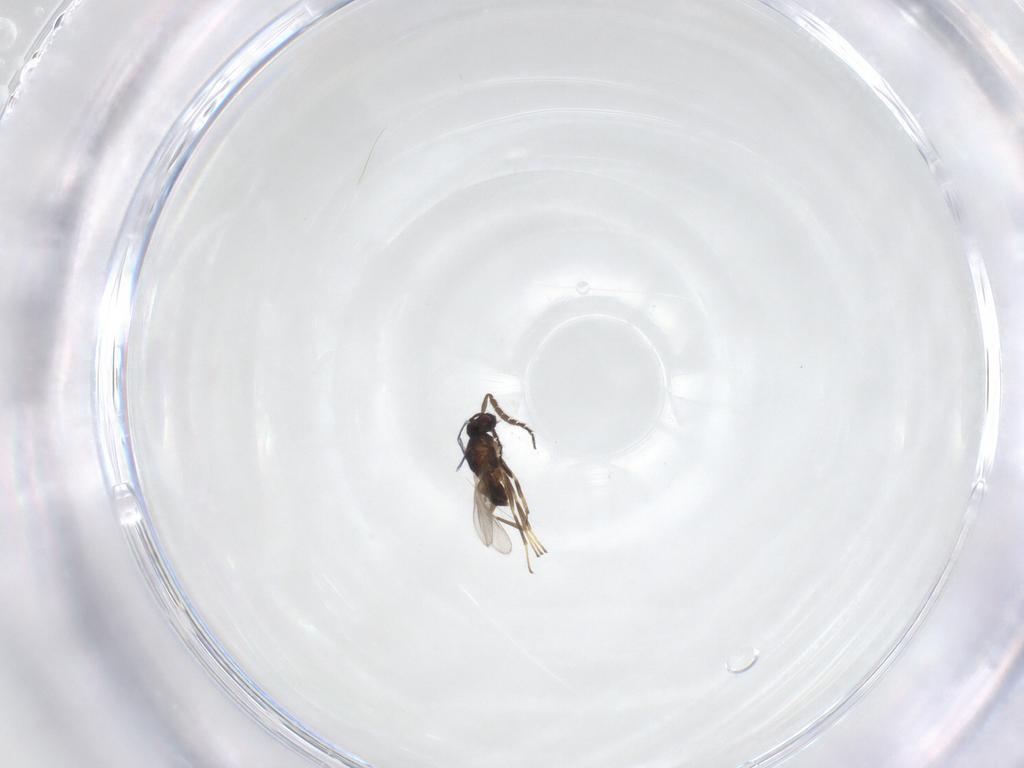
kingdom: Animalia
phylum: Arthropoda
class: Insecta
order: Hymenoptera
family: Encyrtidae
